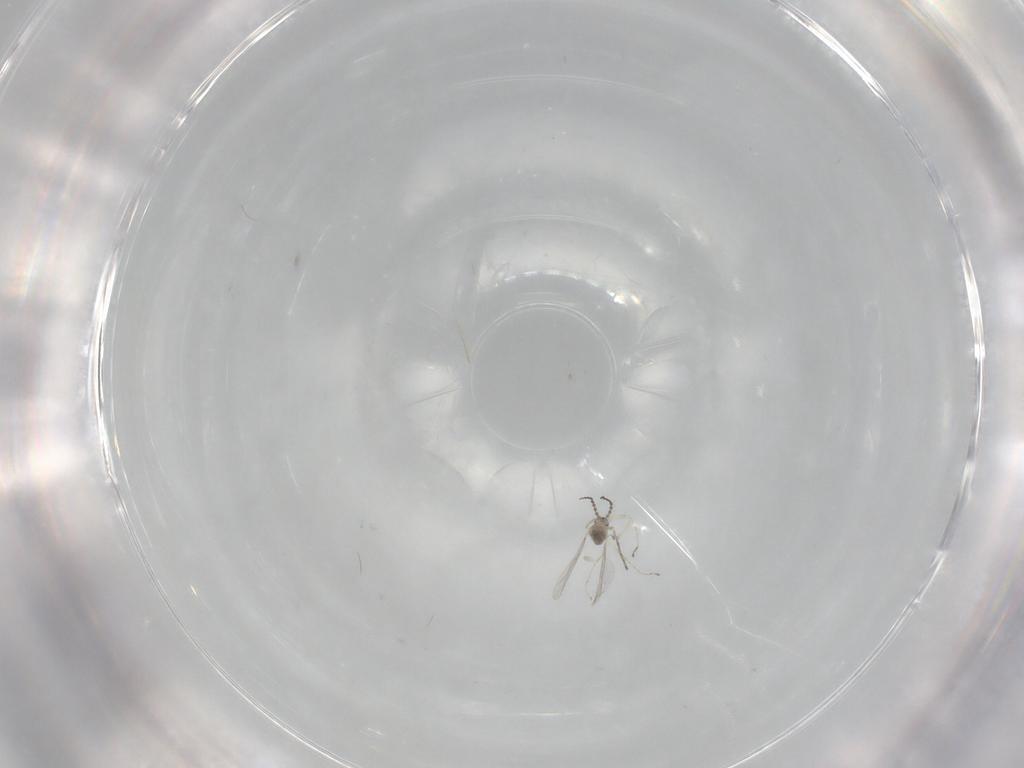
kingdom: Animalia
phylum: Arthropoda
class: Insecta
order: Diptera
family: Cecidomyiidae
